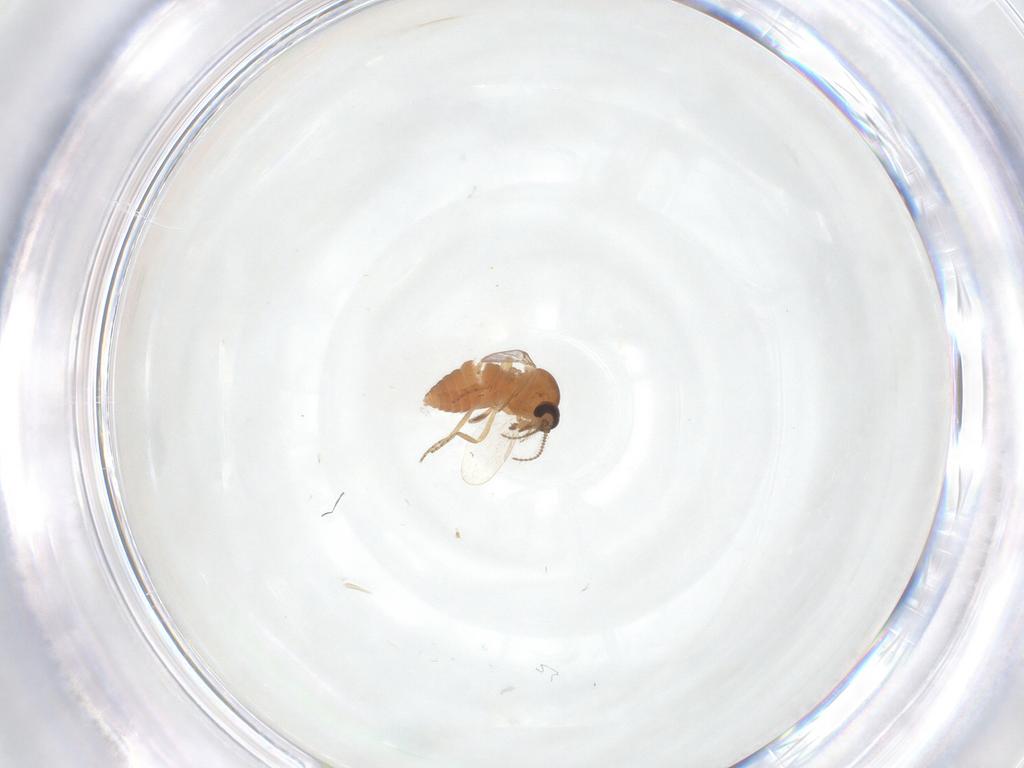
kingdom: Animalia
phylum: Arthropoda
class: Insecta
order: Diptera
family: Ceratopogonidae
